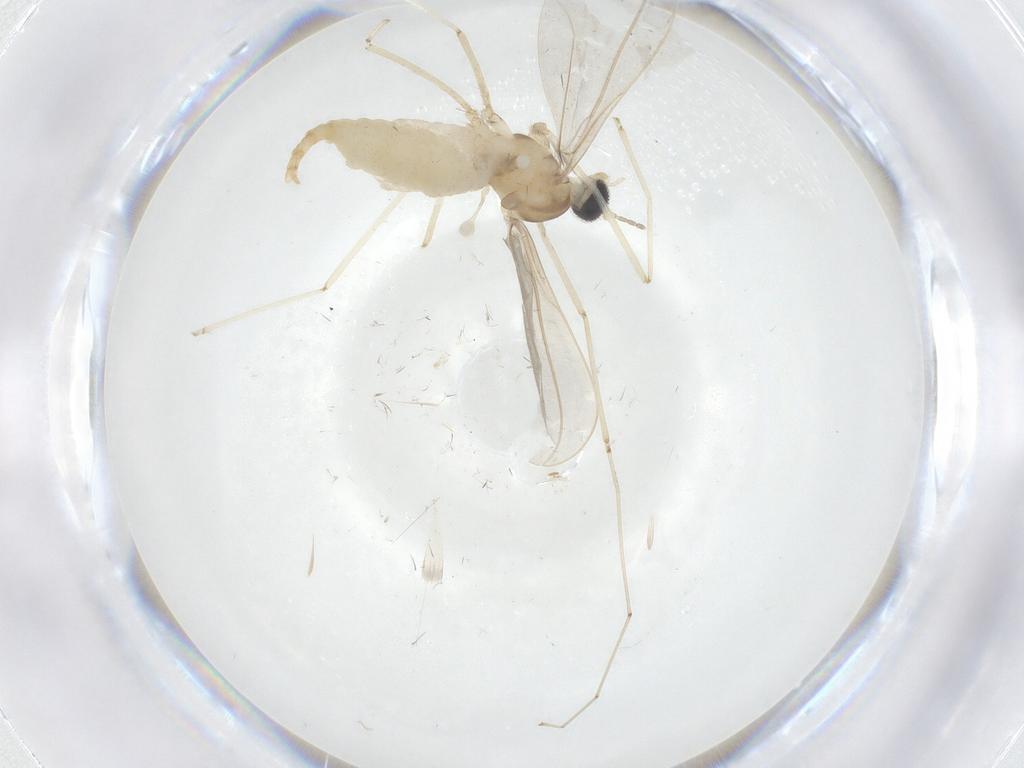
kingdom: Animalia
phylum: Arthropoda
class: Insecta
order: Diptera
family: Cecidomyiidae
